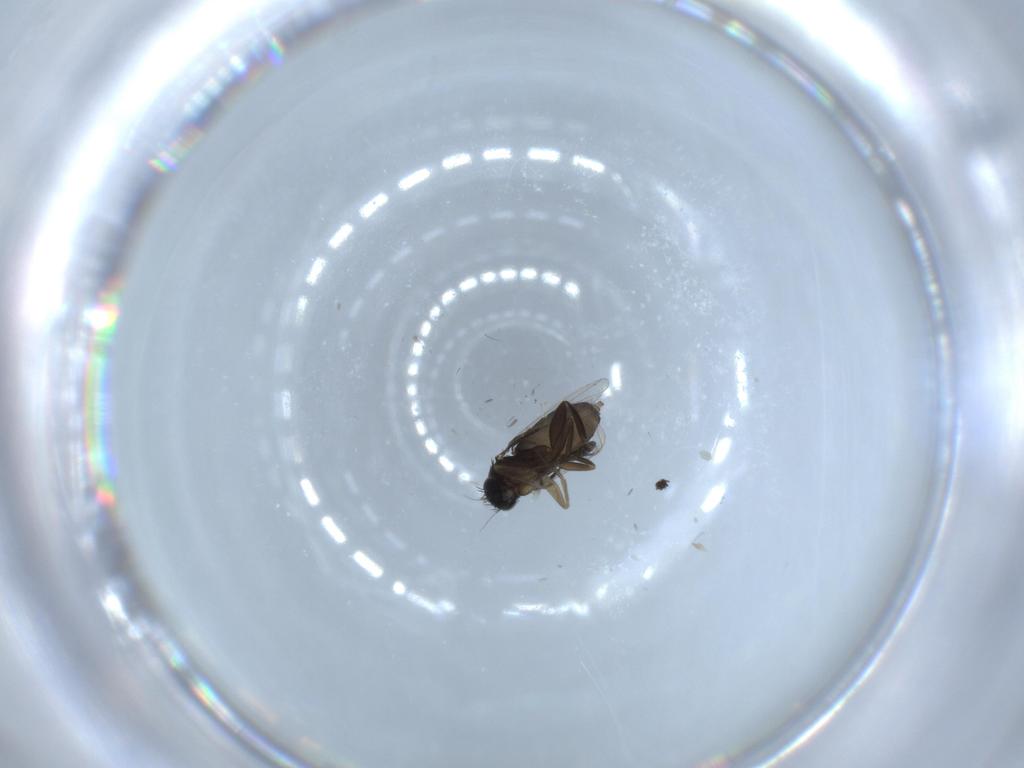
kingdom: Animalia
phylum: Arthropoda
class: Insecta
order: Diptera
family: Phoridae
